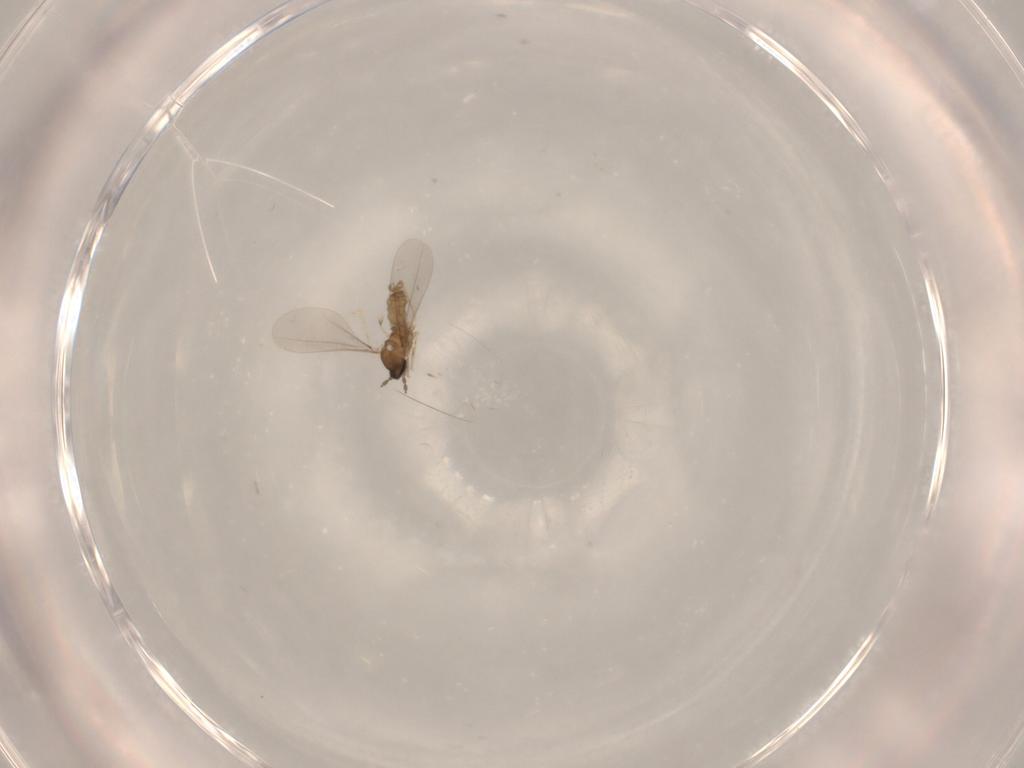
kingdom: Animalia
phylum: Arthropoda
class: Insecta
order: Diptera
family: Cecidomyiidae
